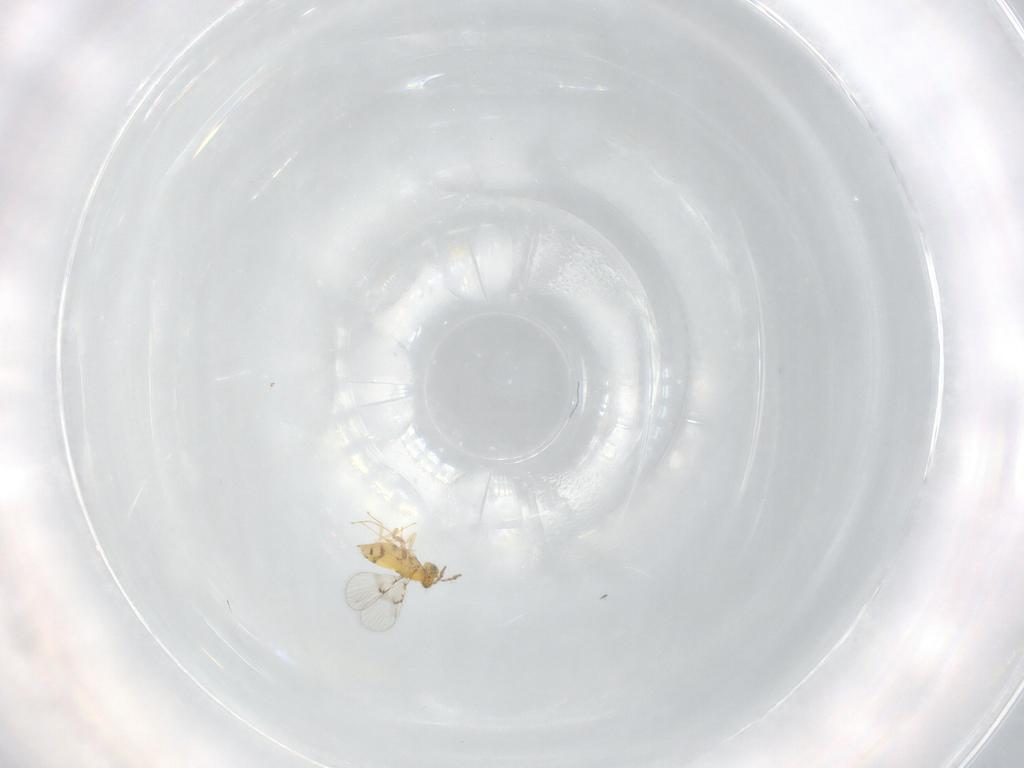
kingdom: Animalia
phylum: Arthropoda
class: Insecta
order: Hymenoptera
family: Trichogrammatidae
